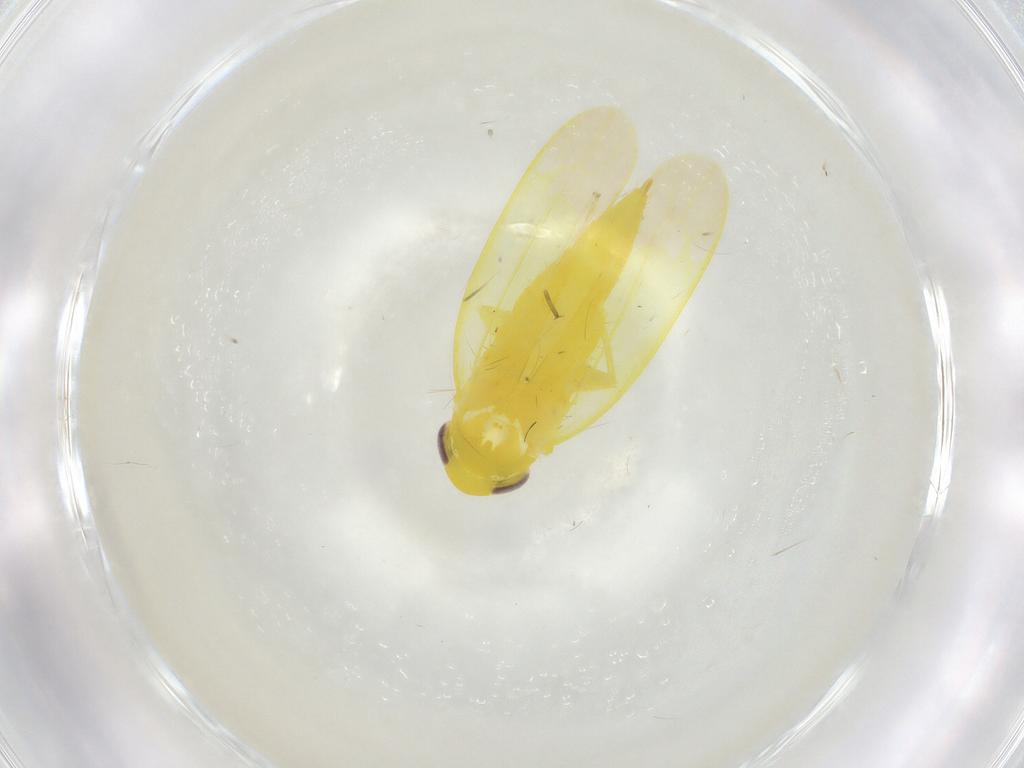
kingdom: Animalia
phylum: Arthropoda
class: Insecta
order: Hemiptera
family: Cicadellidae
